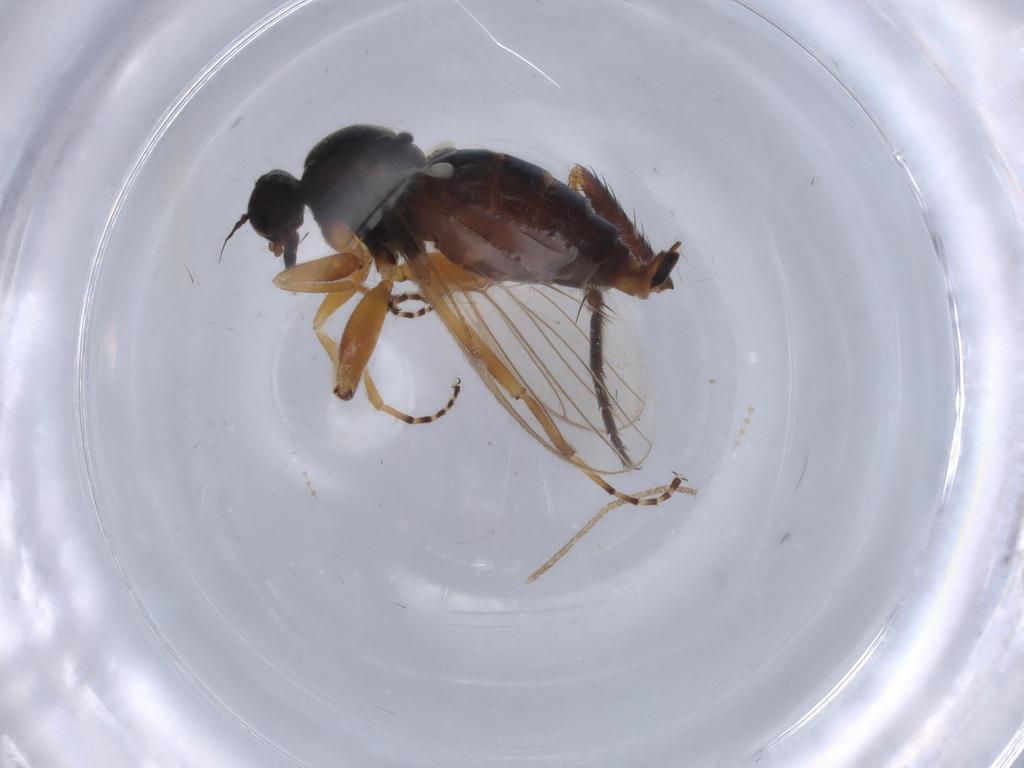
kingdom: Animalia
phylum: Arthropoda
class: Insecta
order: Diptera
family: Hybotidae
